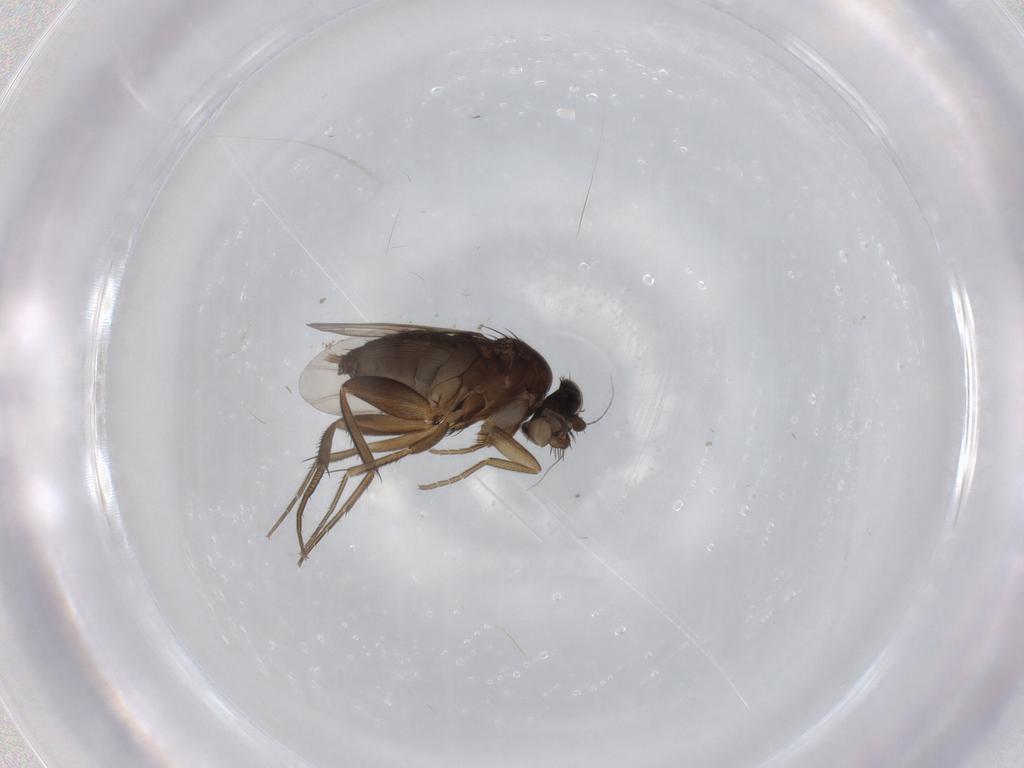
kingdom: Animalia
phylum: Arthropoda
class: Insecta
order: Diptera
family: Phoridae
